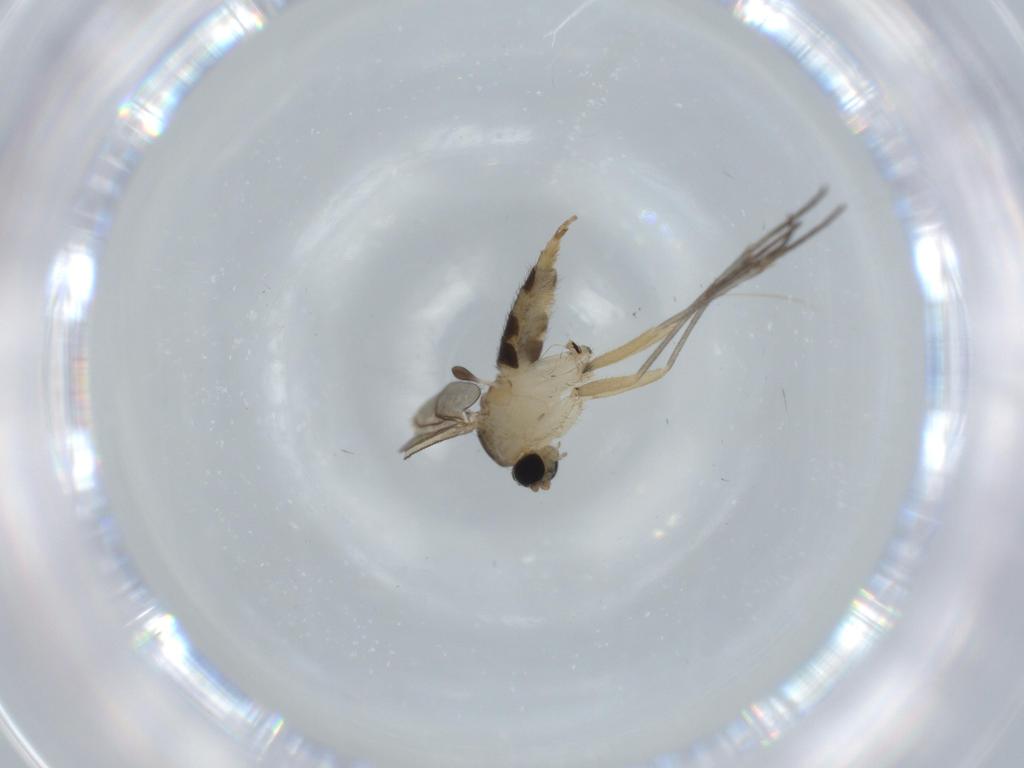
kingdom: Animalia
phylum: Arthropoda
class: Insecta
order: Diptera
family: Sciaridae
